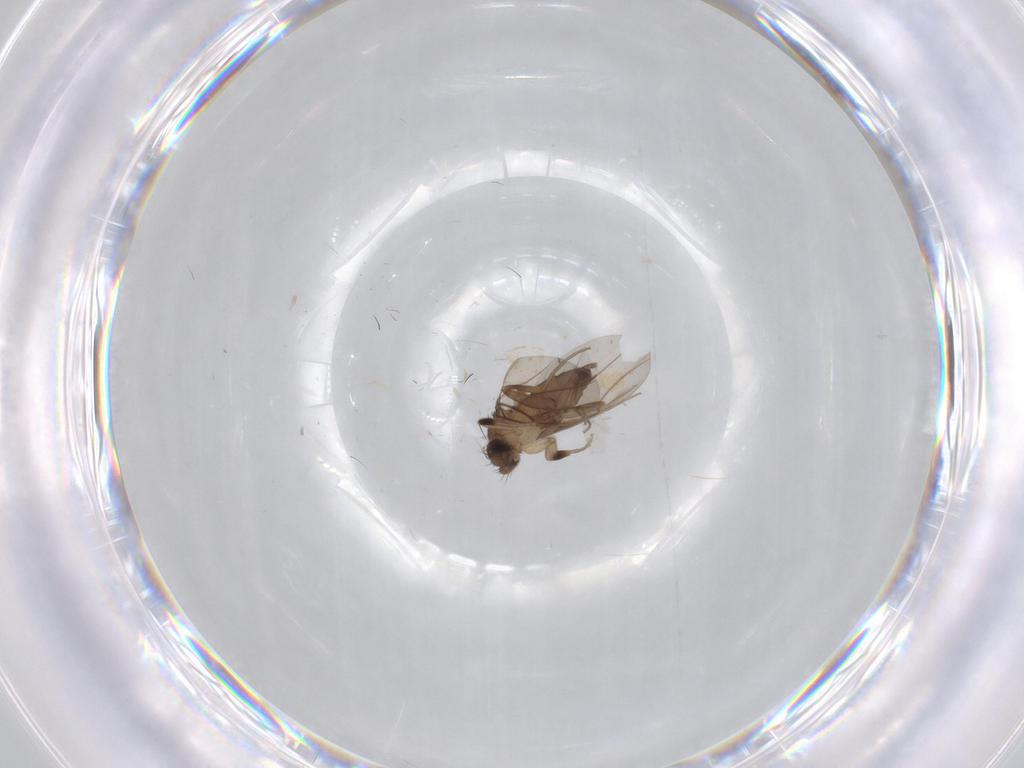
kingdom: Animalia
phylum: Arthropoda
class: Insecta
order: Diptera
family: Phoridae
